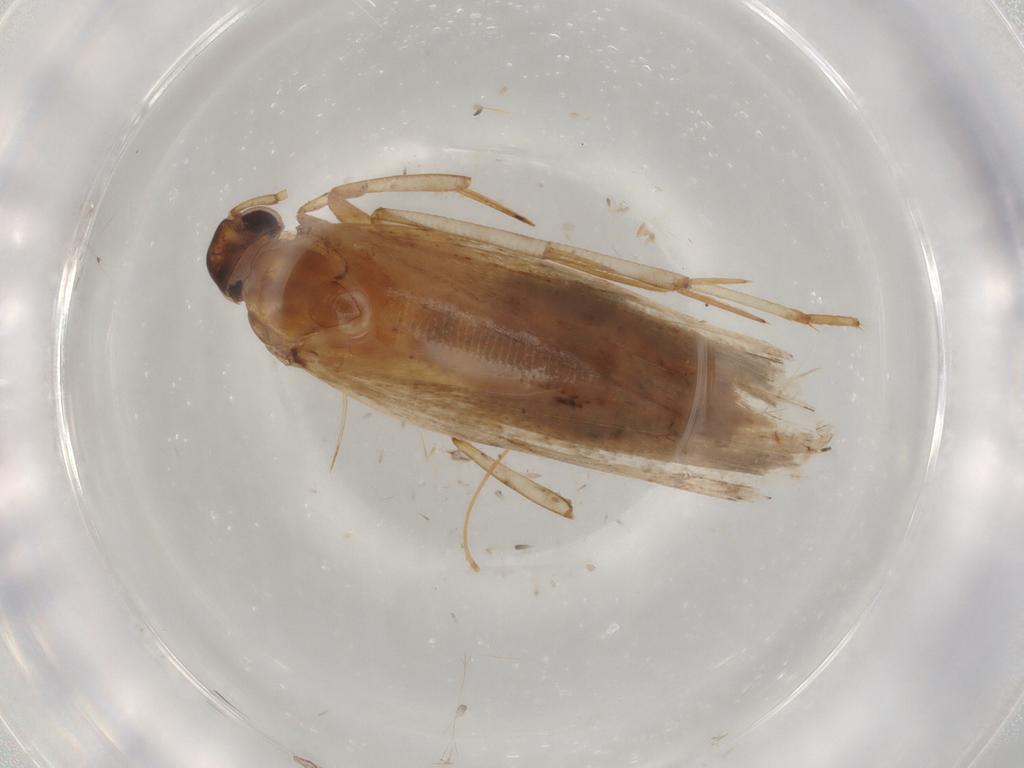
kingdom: Animalia
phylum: Arthropoda
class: Insecta
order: Lepidoptera
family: Gelechiidae
